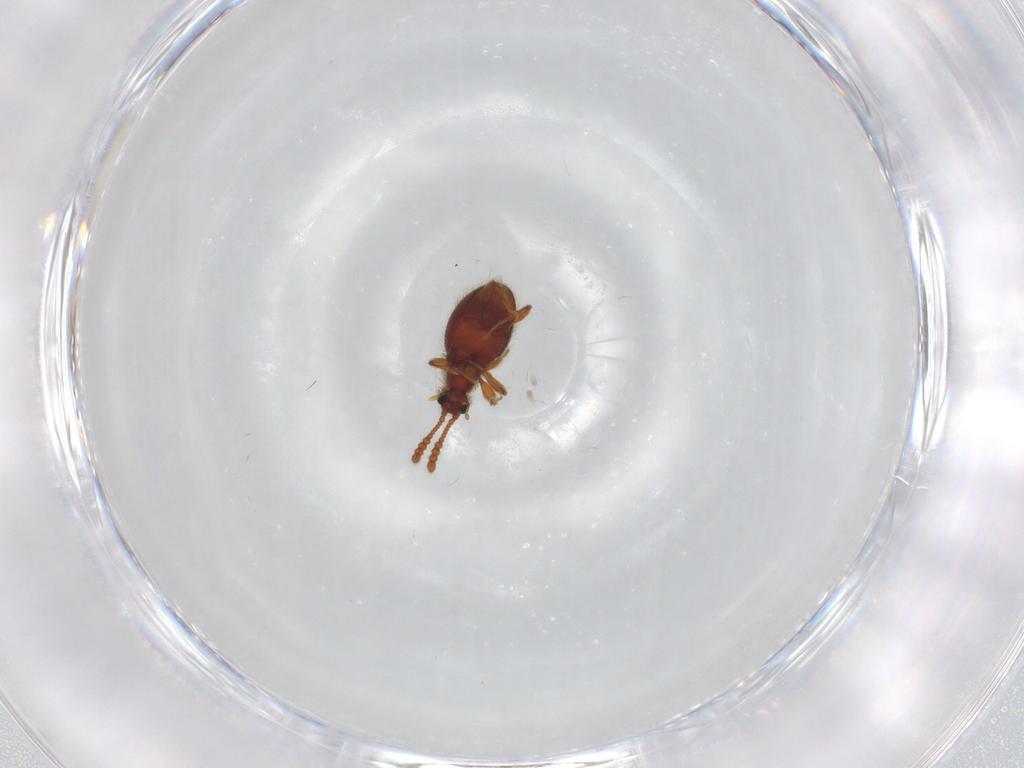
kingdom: Animalia
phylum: Arthropoda
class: Insecta
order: Coleoptera
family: Staphylinidae
